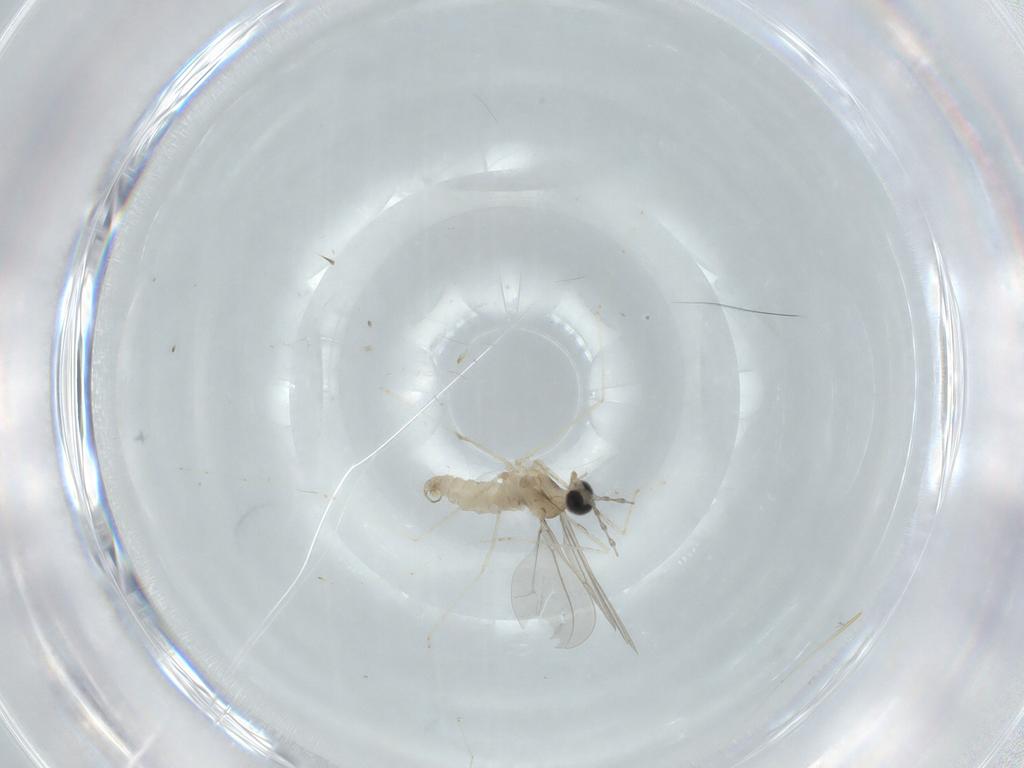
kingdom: Animalia
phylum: Arthropoda
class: Insecta
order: Diptera
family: Cecidomyiidae
